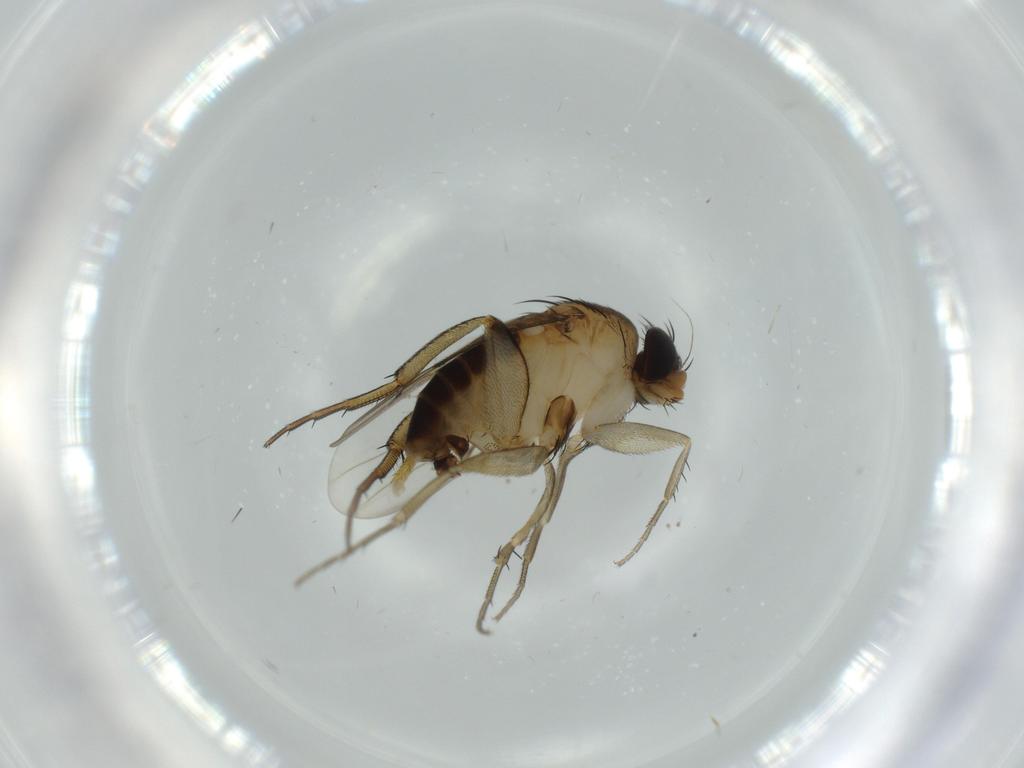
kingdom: Animalia
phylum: Arthropoda
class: Insecta
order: Diptera
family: Phoridae
